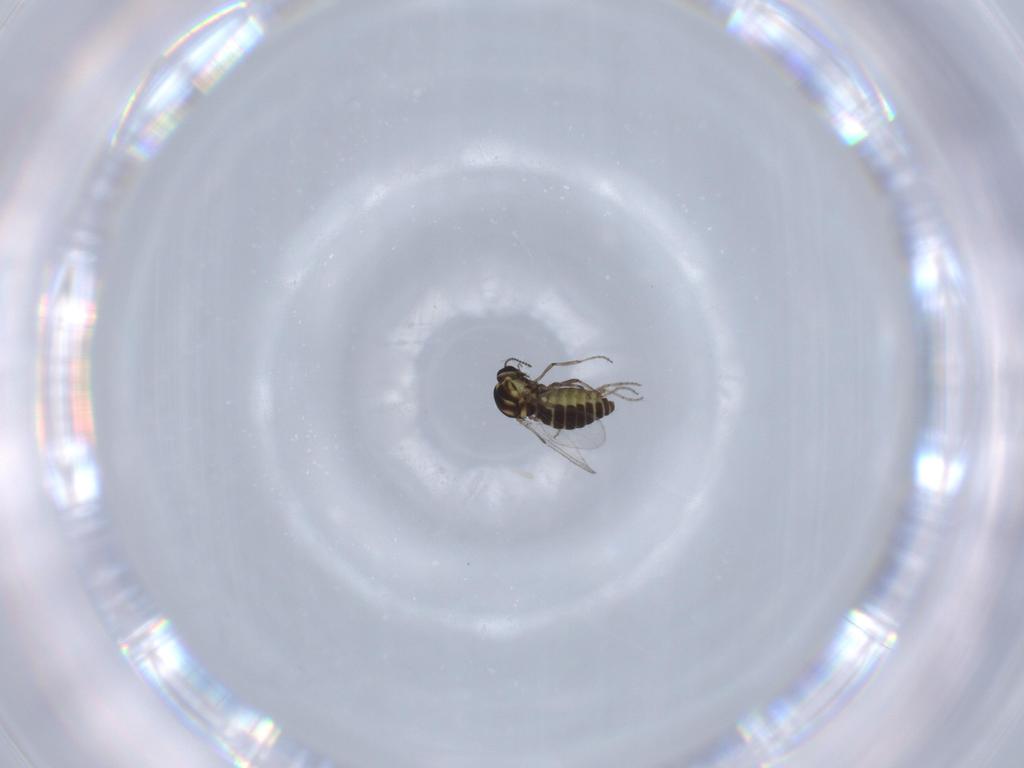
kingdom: Animalia
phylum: Arthropoda
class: Insecta
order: Diptera
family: Ceratopogonidae
